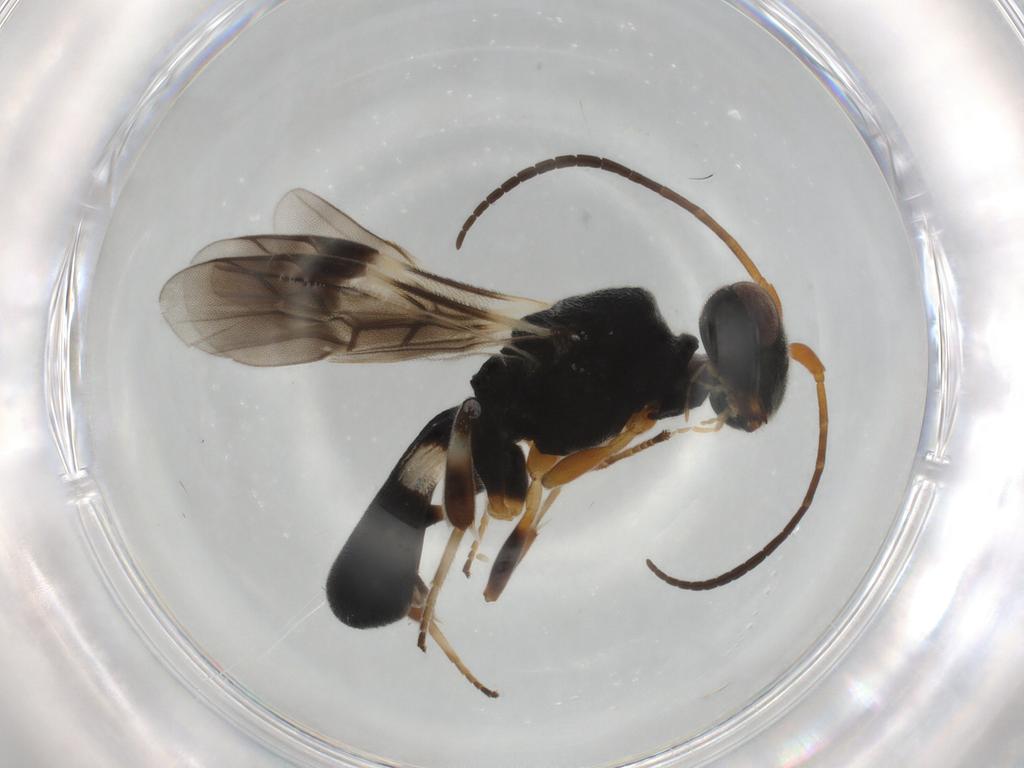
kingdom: Animalia
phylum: Arthropoda
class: Insecta
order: Hymenoptera
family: Braconidae
